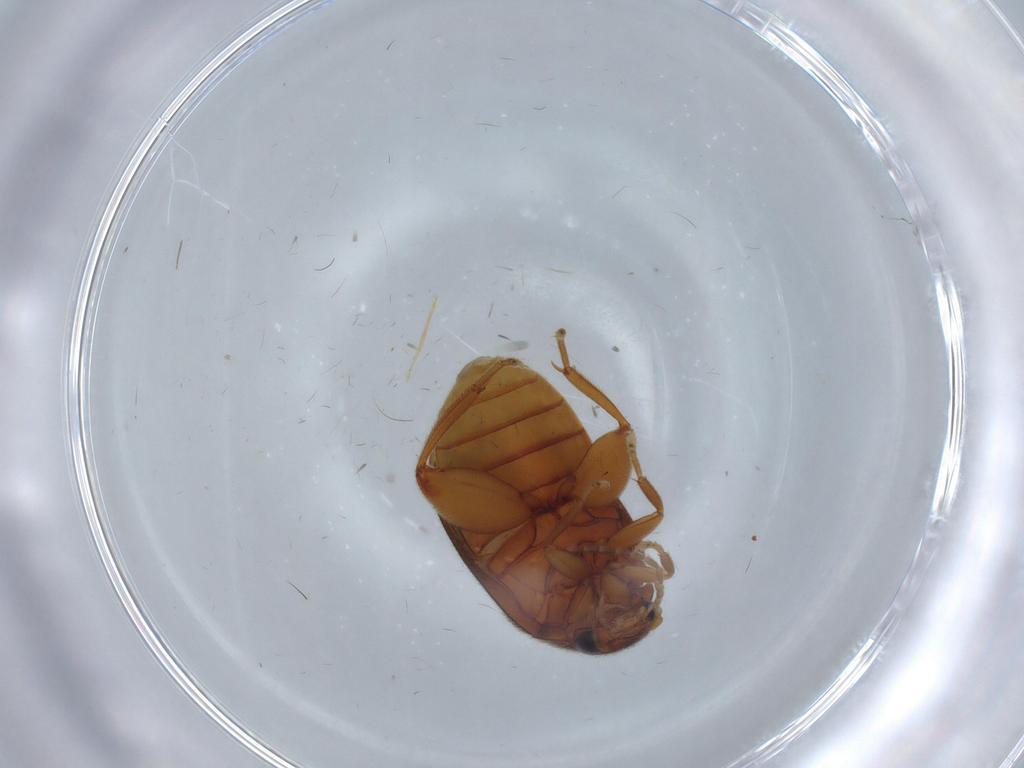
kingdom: Animalia
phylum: Arthropoda
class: Insecta
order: Coleoptera
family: Scirtidae
